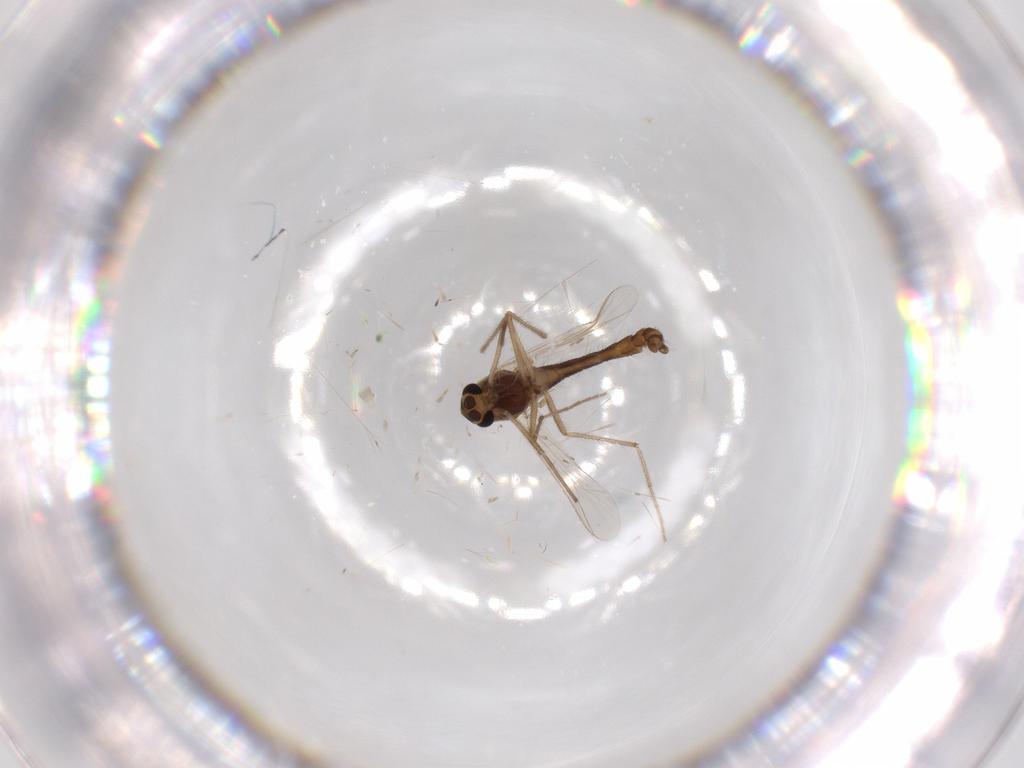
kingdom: Animalia
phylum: Arthropoda
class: Insecta
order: Diptera
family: Chironomidae
